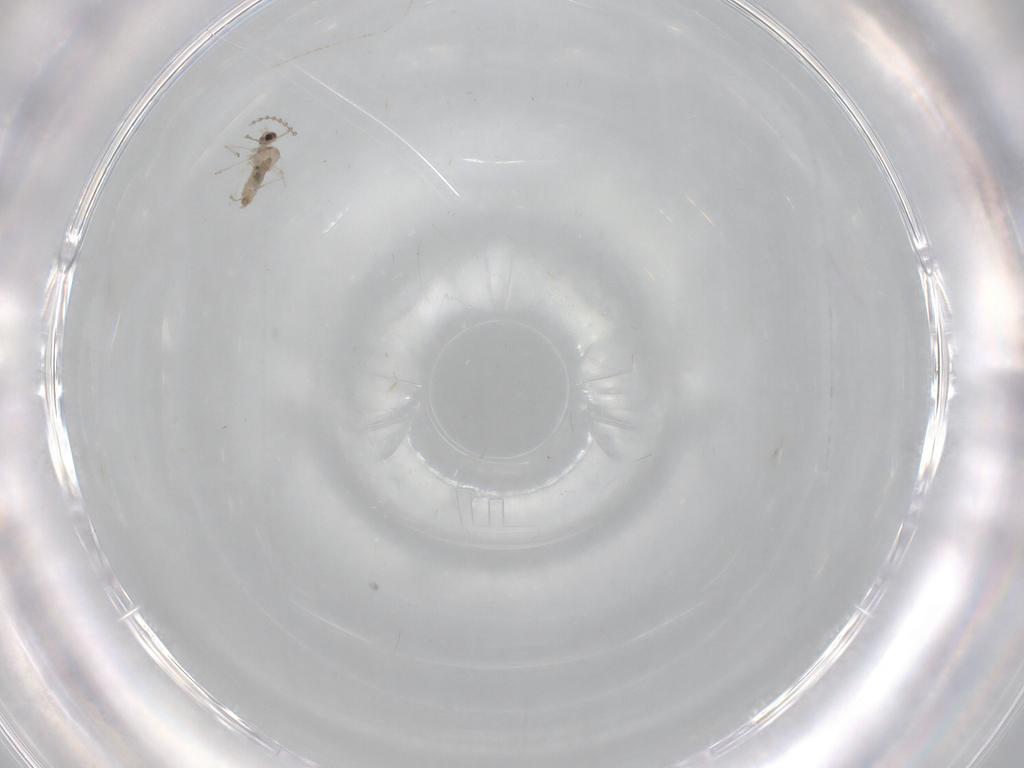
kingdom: Animalia
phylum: Arthropoda
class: Insecta
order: Diptera
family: Cecidomyiidae
